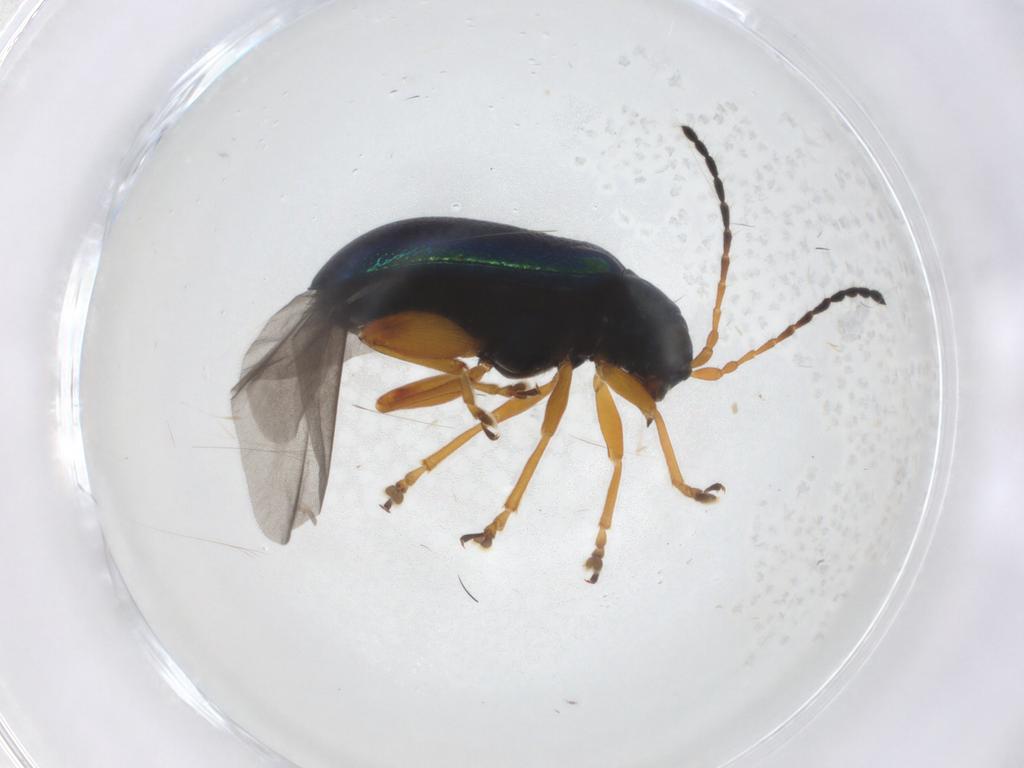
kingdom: Animalia
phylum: Arthropoda
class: Insecta
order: Coleoptera
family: Chrysomelidae
